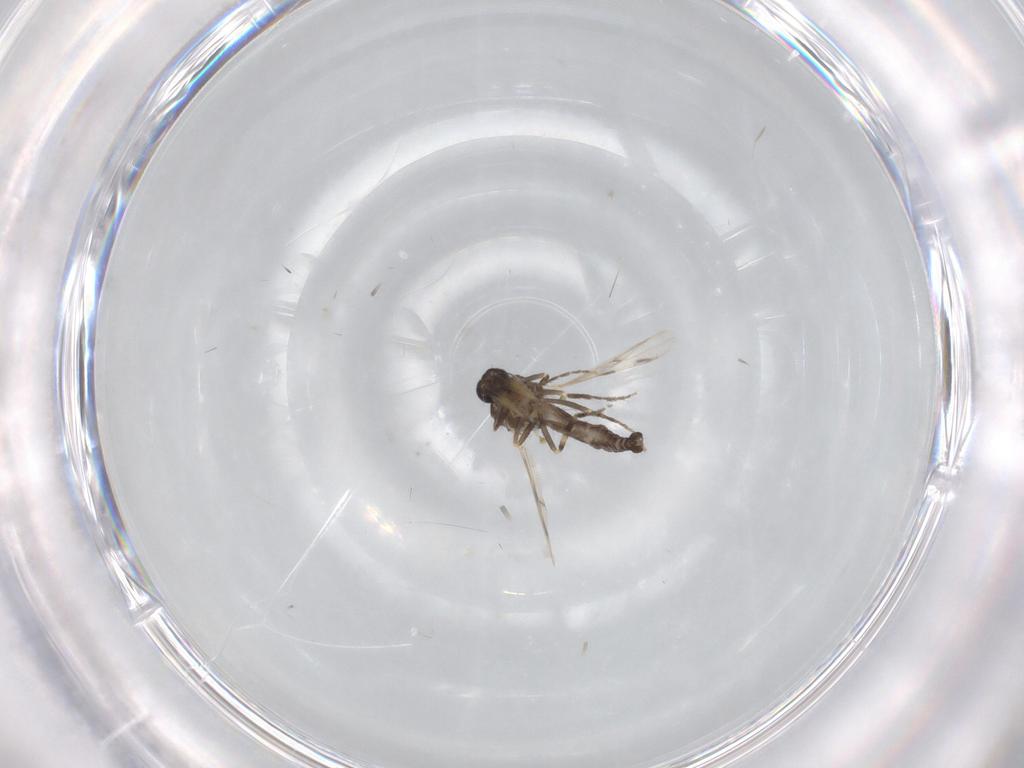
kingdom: Animalia
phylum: Arthropoda
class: Insecta
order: Diptera
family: Ceratopogonidae
